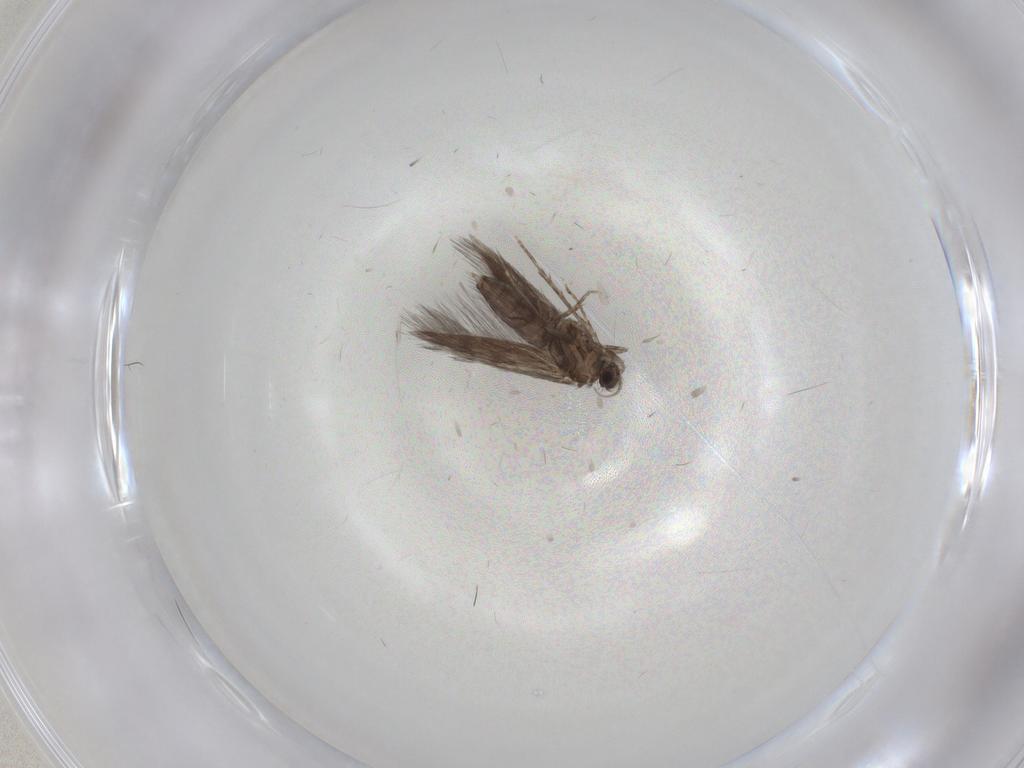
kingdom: Animalia
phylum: Arthropoda
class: Insecta
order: Trichoptera
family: Hydroptilidae
